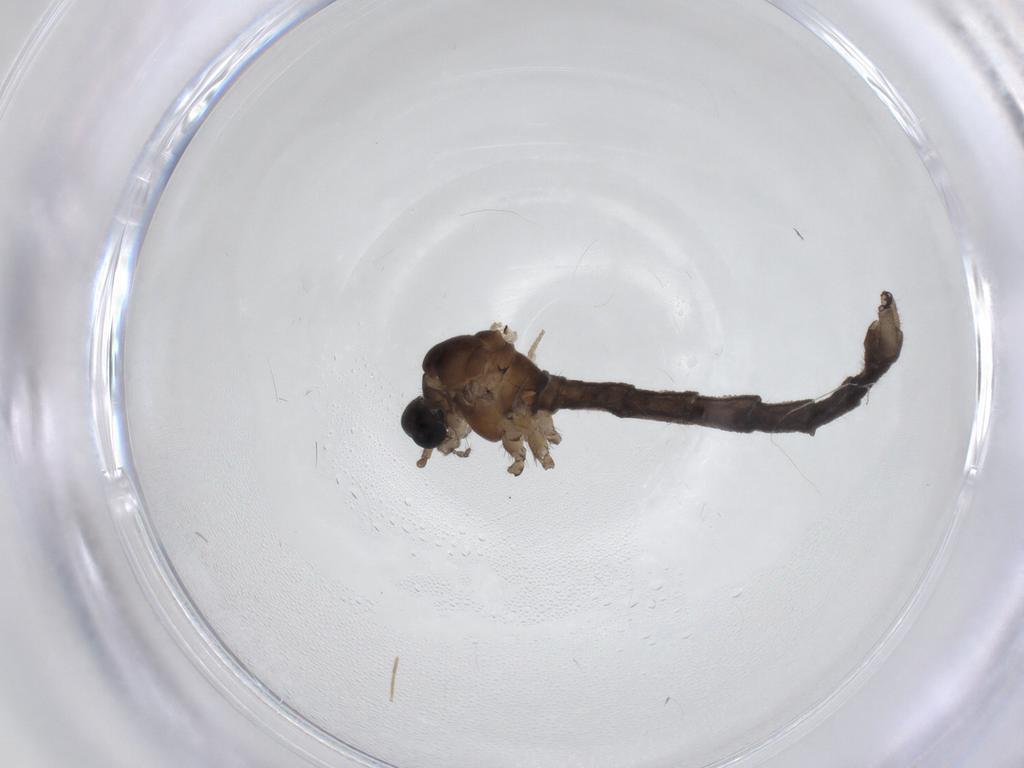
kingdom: Animalia
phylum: Arthropoda
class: Insecta
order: Diptera
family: Limoniidae
